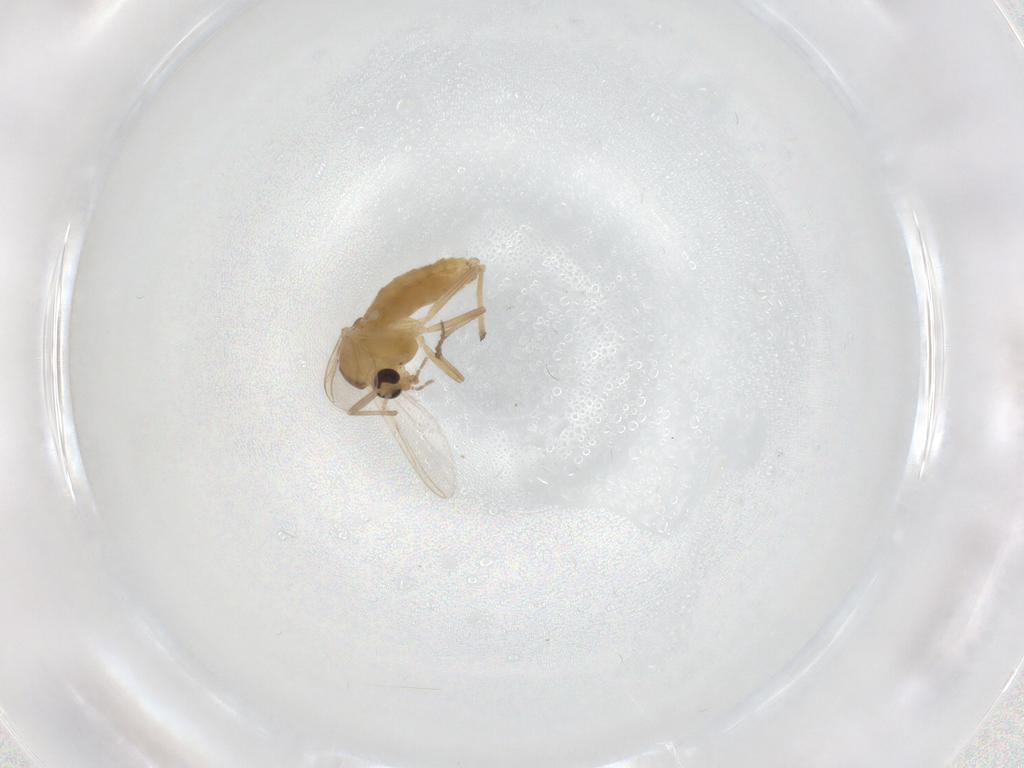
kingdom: Animalia
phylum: Arthropoda
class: Insecta
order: Diptera
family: Chironomidae
